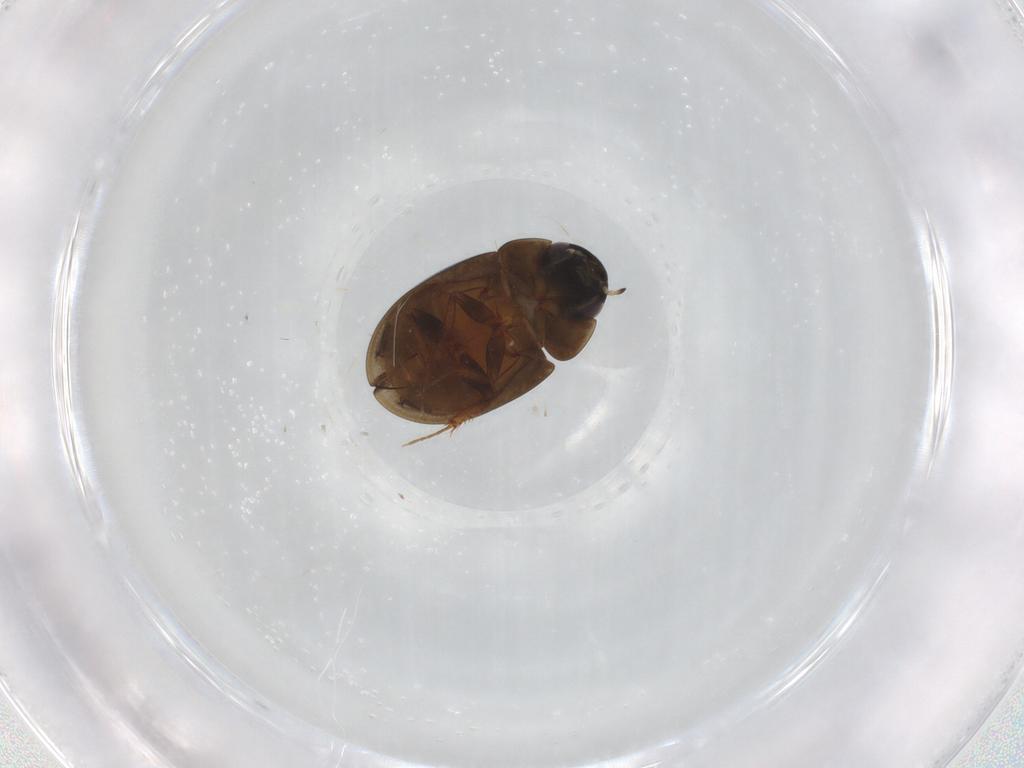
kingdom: Animalia
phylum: Arthropoda
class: Insecta
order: Coleoptera
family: Hydrophilidae
